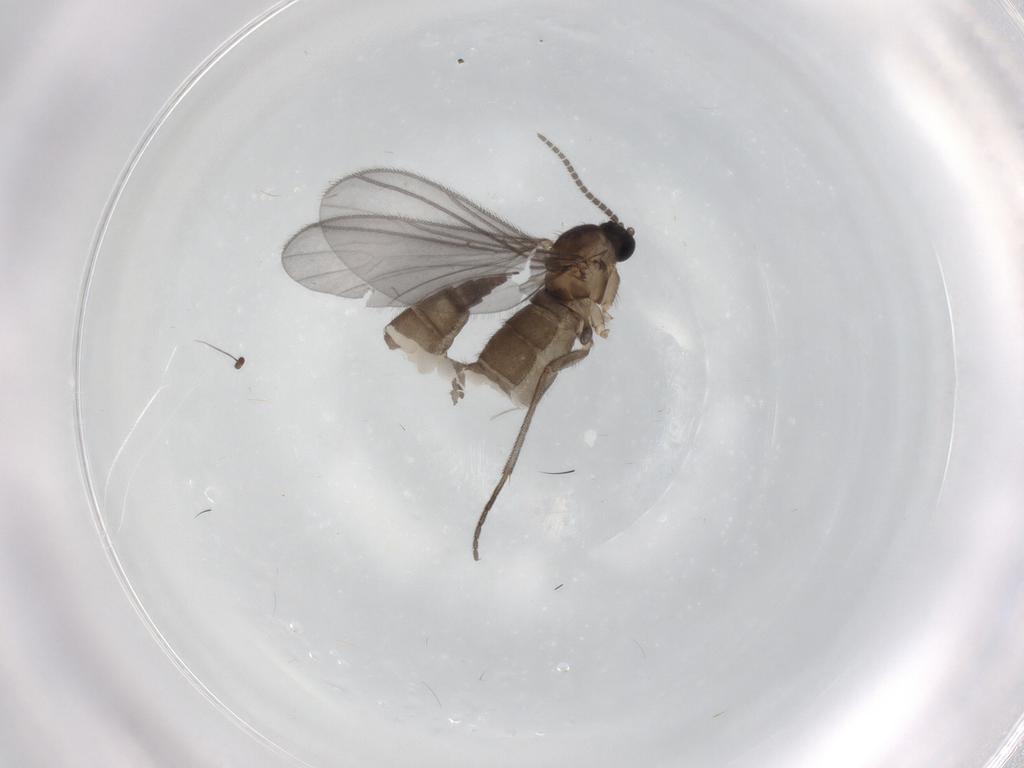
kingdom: Animalia
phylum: Arthropoda
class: Insecta
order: Diptera
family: Sciaridae
